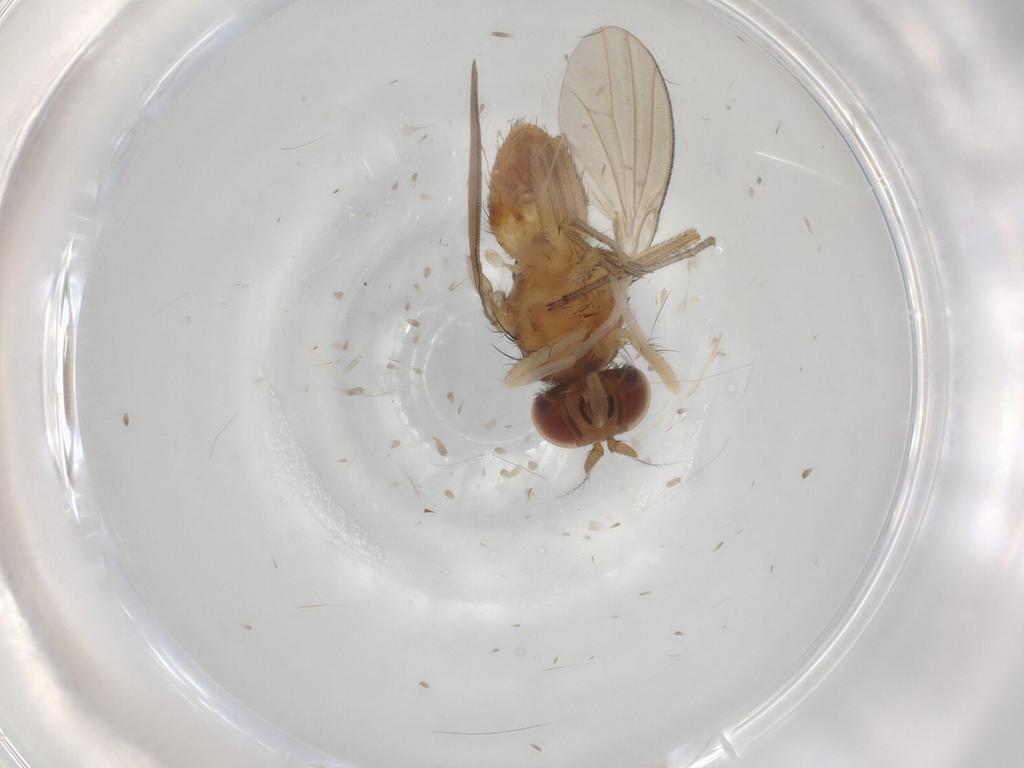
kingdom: Animalia
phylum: Arthropoda
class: Insecta
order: Diptera
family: Lauxaniidae
